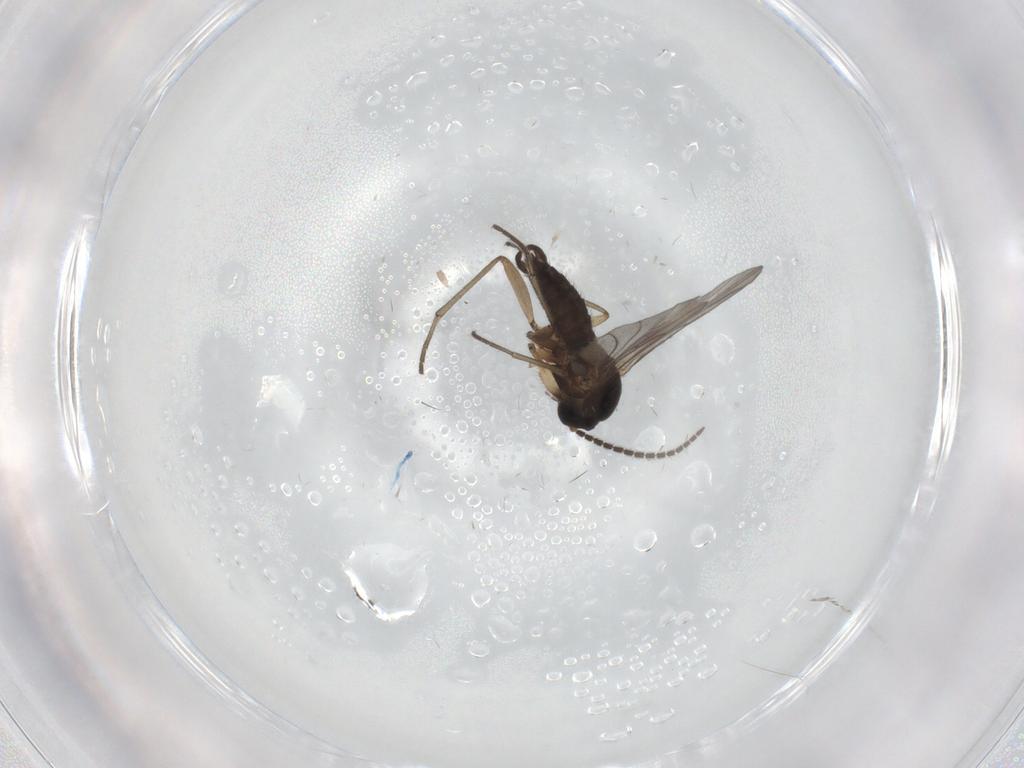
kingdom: Animalia
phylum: Arthropoda
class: Insecta
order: Diptera
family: Sciaridae
